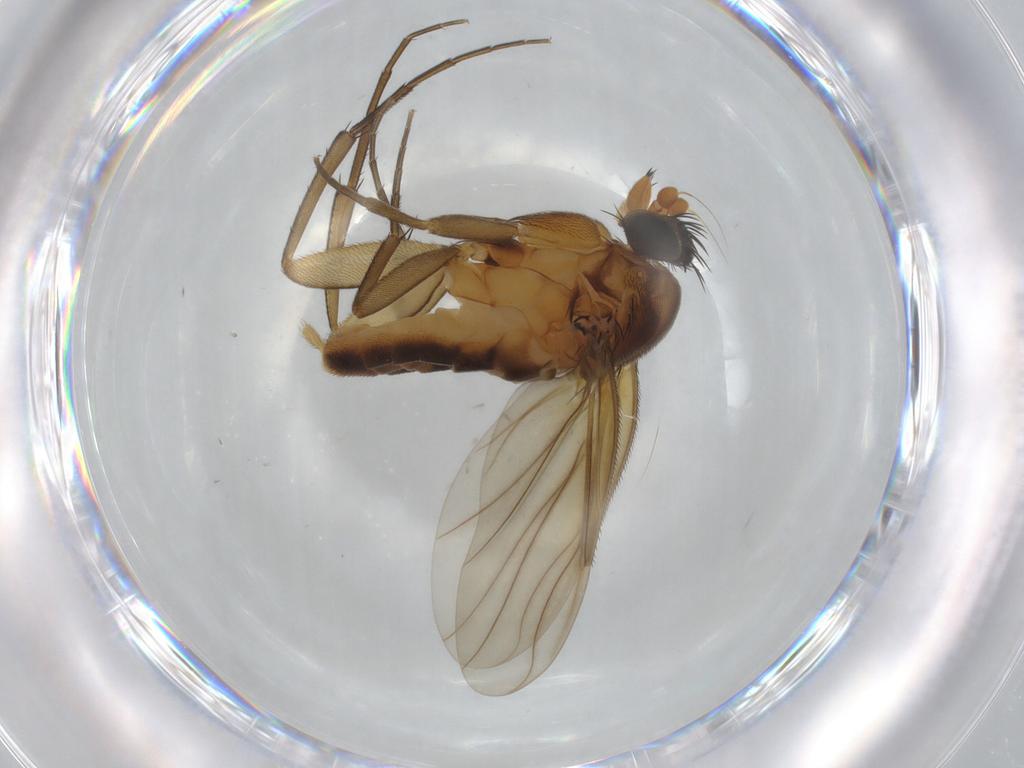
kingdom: Animalia
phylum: Arthropoda
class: Insecta
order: Diptera
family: Phoridae
